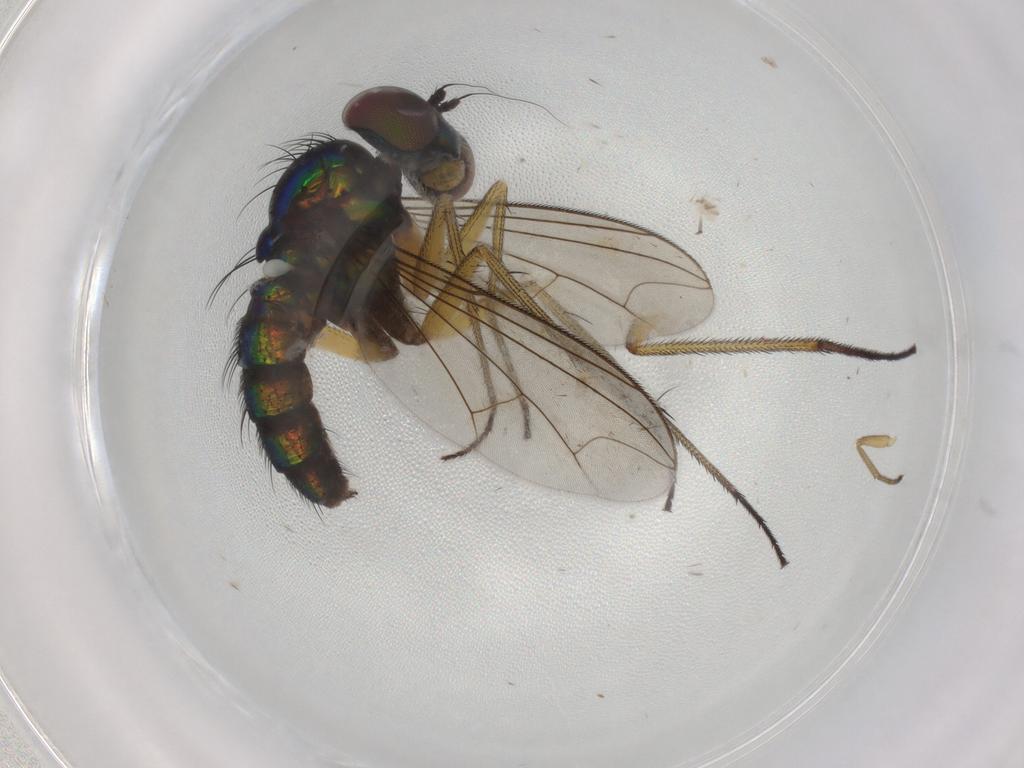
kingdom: Animalia
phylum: Arthropoda
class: Insecta
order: Diptera
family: Dolichopodidae
